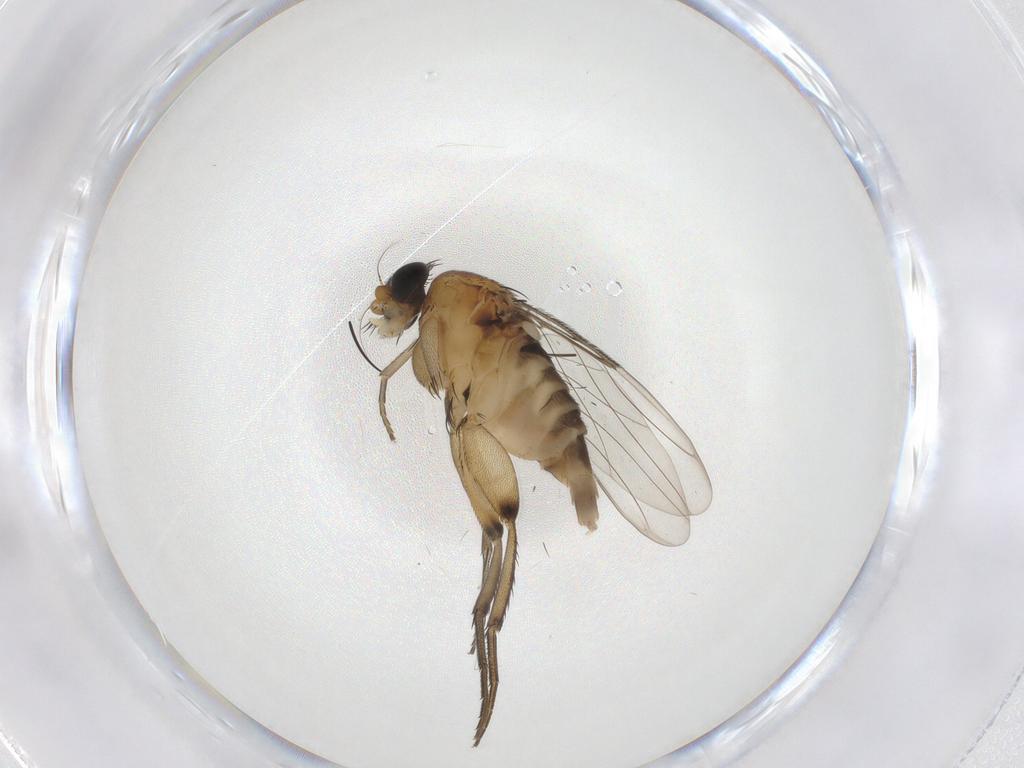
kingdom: Animalia
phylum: Arthropoda
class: Insecta
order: Diptera
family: Phoridae
